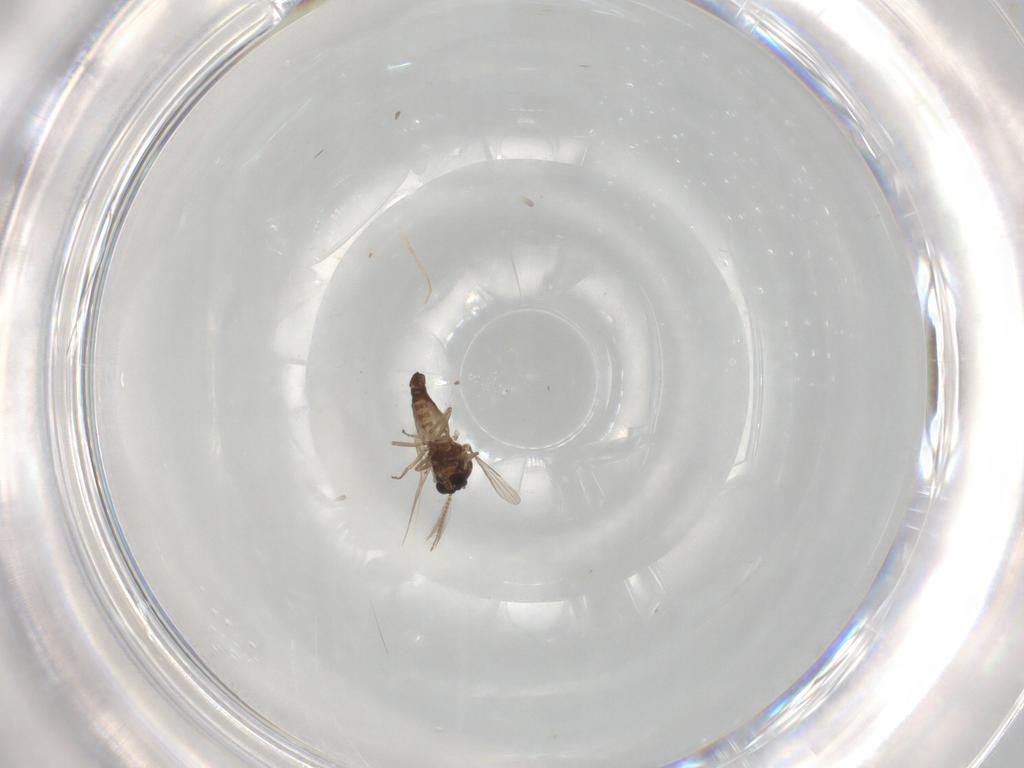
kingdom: Animalia
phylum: Arthropoda
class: Insecta
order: Diptera
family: Ceratopogonidae
